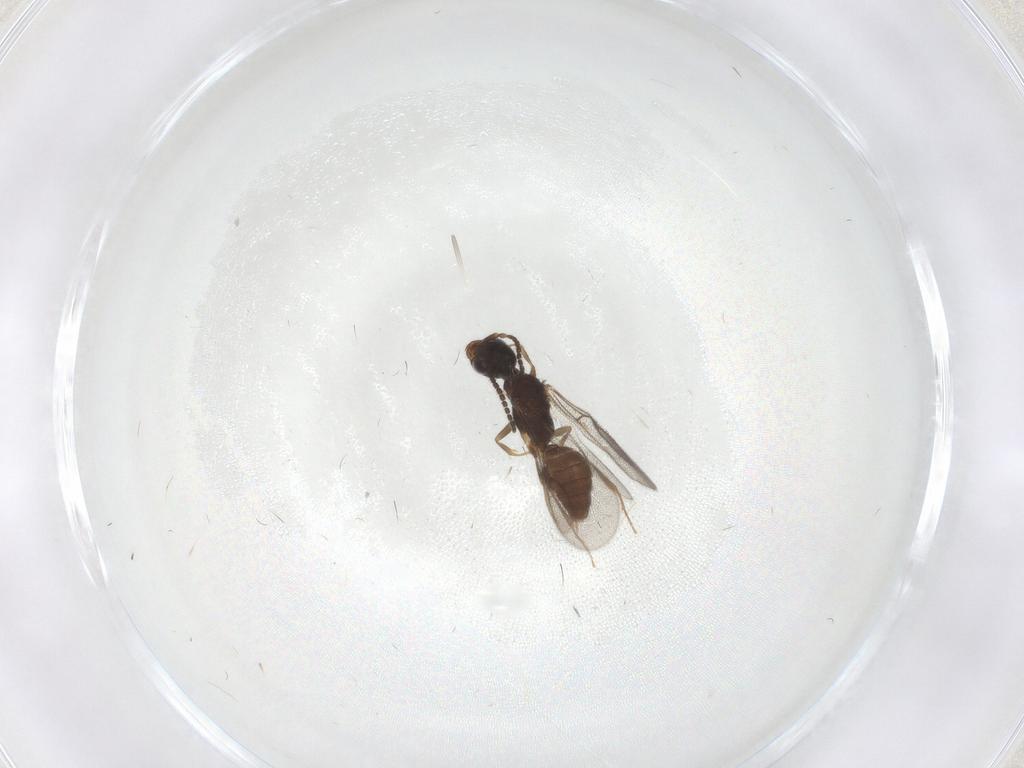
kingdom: Animalia
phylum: Arthropoda
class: Insecta
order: Hymenoptera
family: Bethylidae
